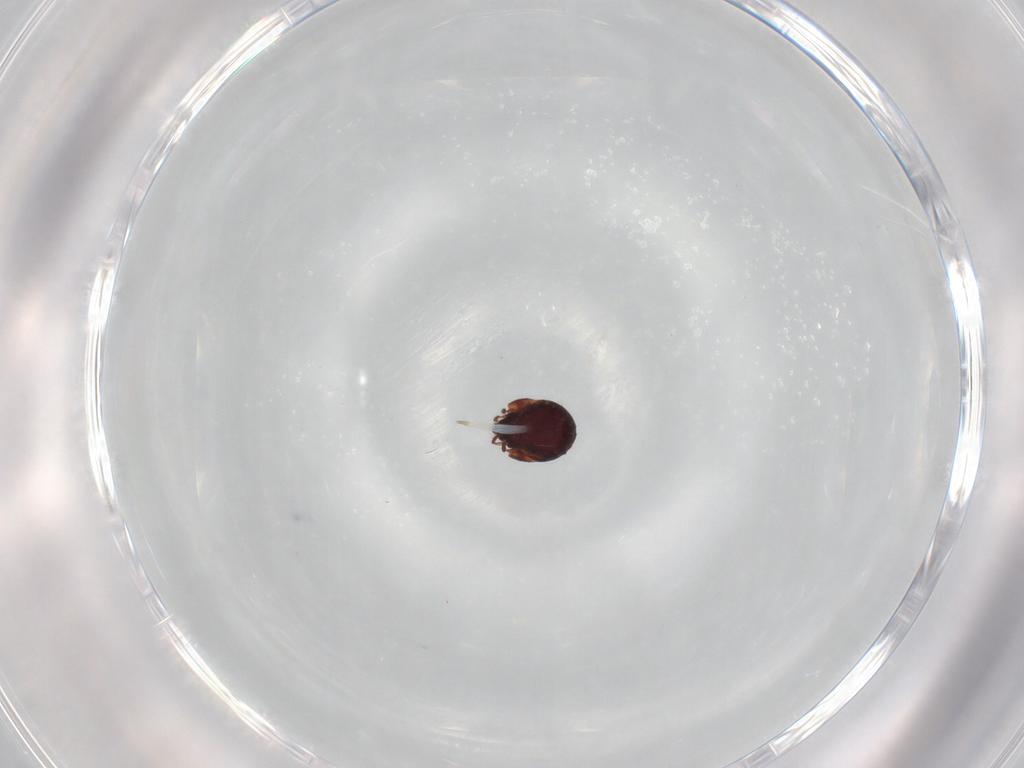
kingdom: Animalia
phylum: Arthropoda
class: Arachnida
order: Sarcoptiformes
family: Humerobatidae
